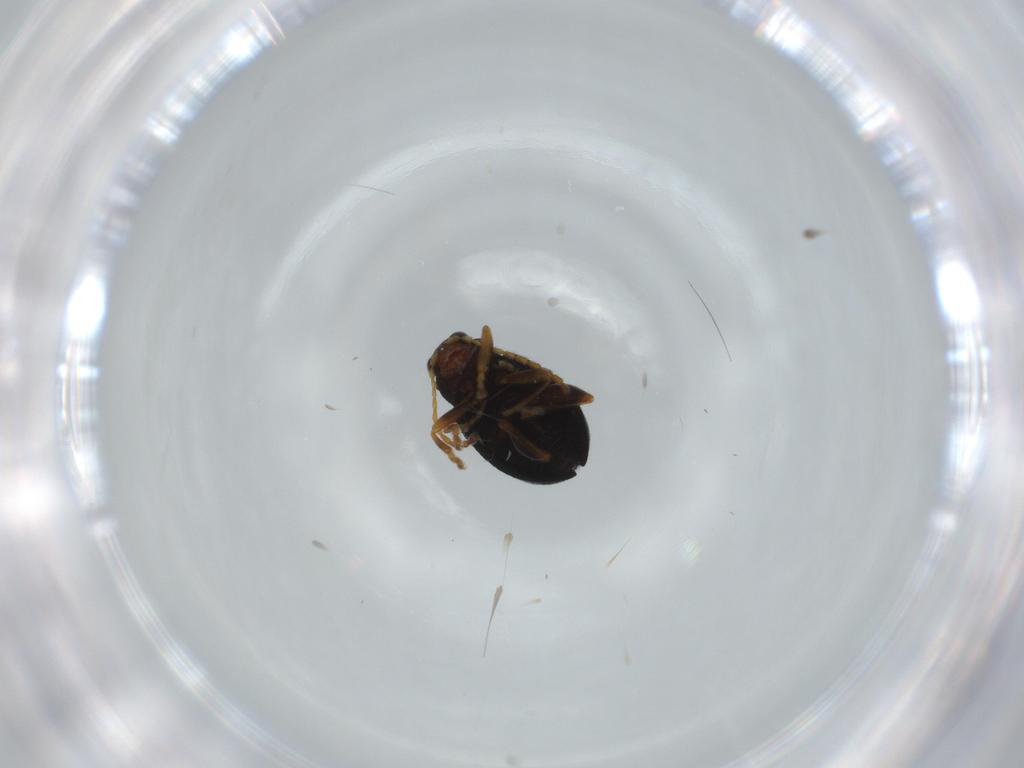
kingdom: Animalia
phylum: Arthropoda
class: Insecta
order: Coleoptera
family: Chrysomelidae
